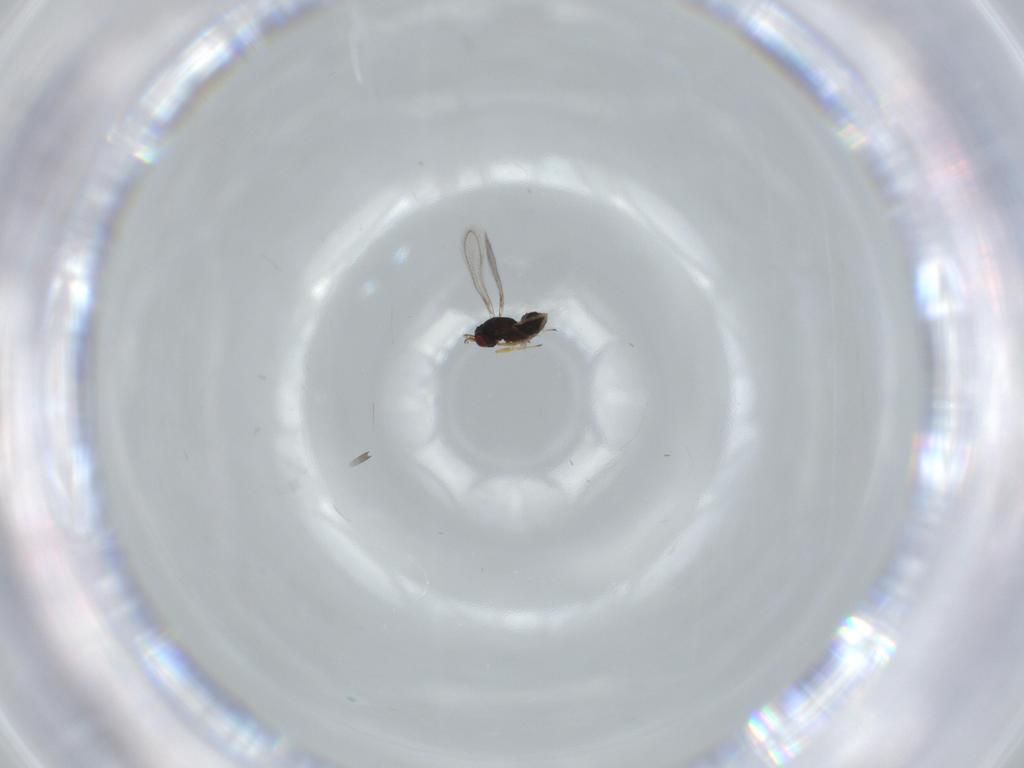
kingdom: Animalia
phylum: Arthropoda
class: Insecta
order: Hymenoptera
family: Mymaridae
